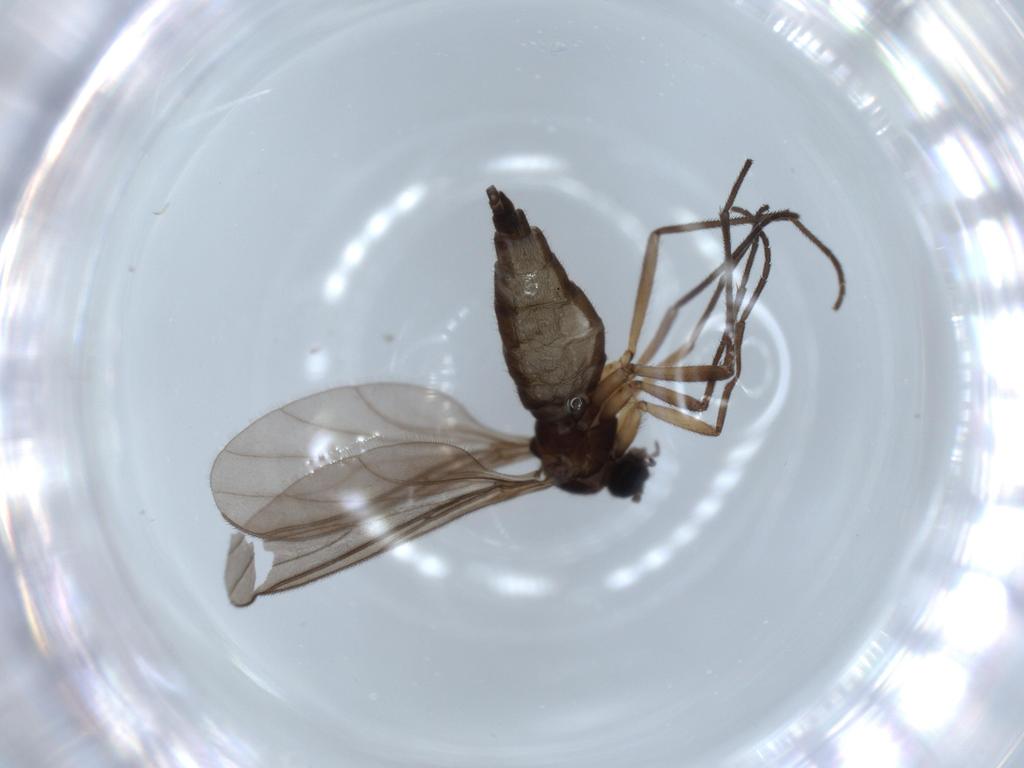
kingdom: Animalia
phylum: Arthropoda
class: Insecta
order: Diptera
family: Sciaridae
